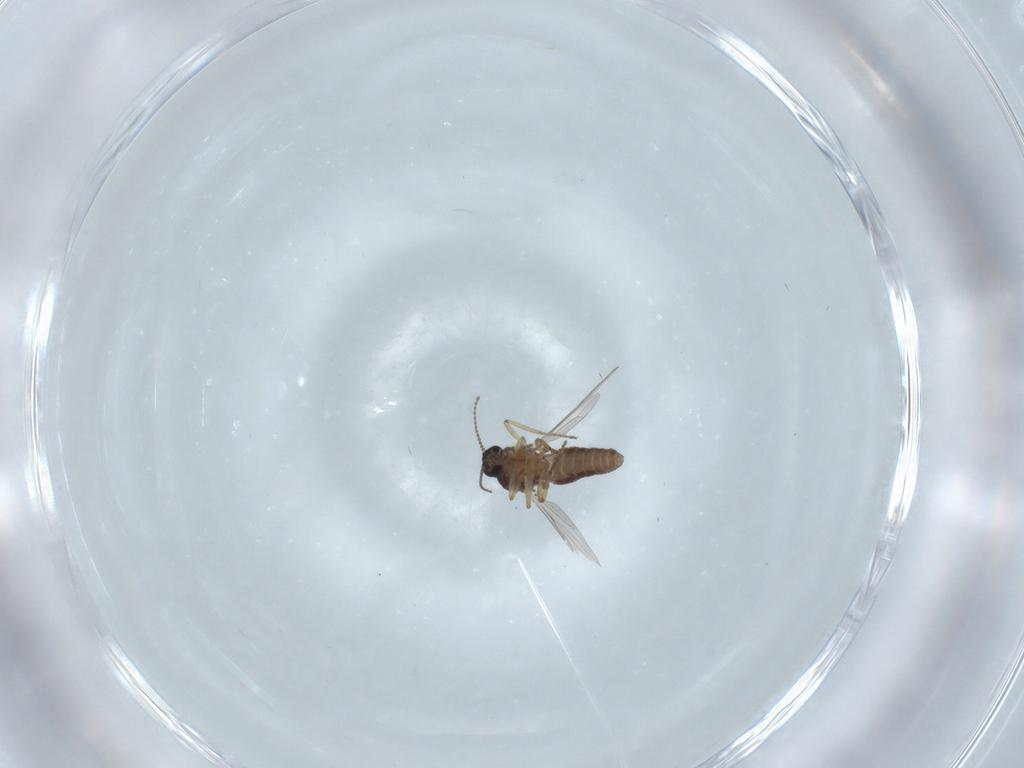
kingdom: Animalia
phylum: Arthropoda
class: Insecta
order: Diptera
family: Ceratopogonidae
